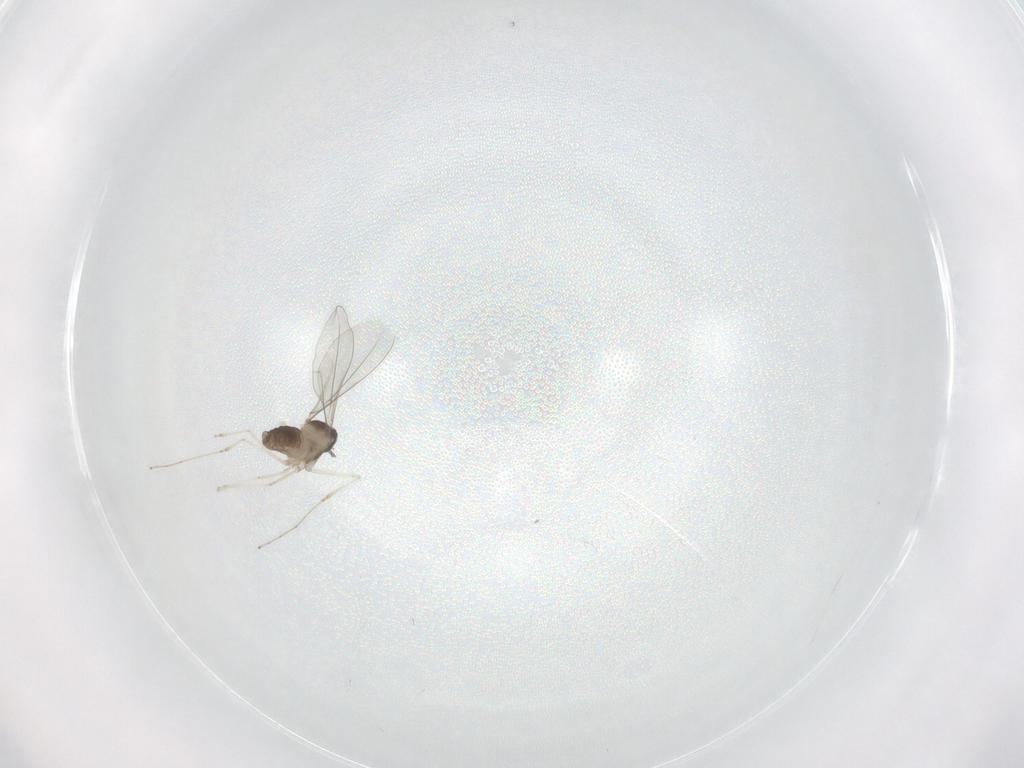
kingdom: Animalia
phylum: Arthropoda
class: Insecta
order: Diptera
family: Cecidomyiidae
